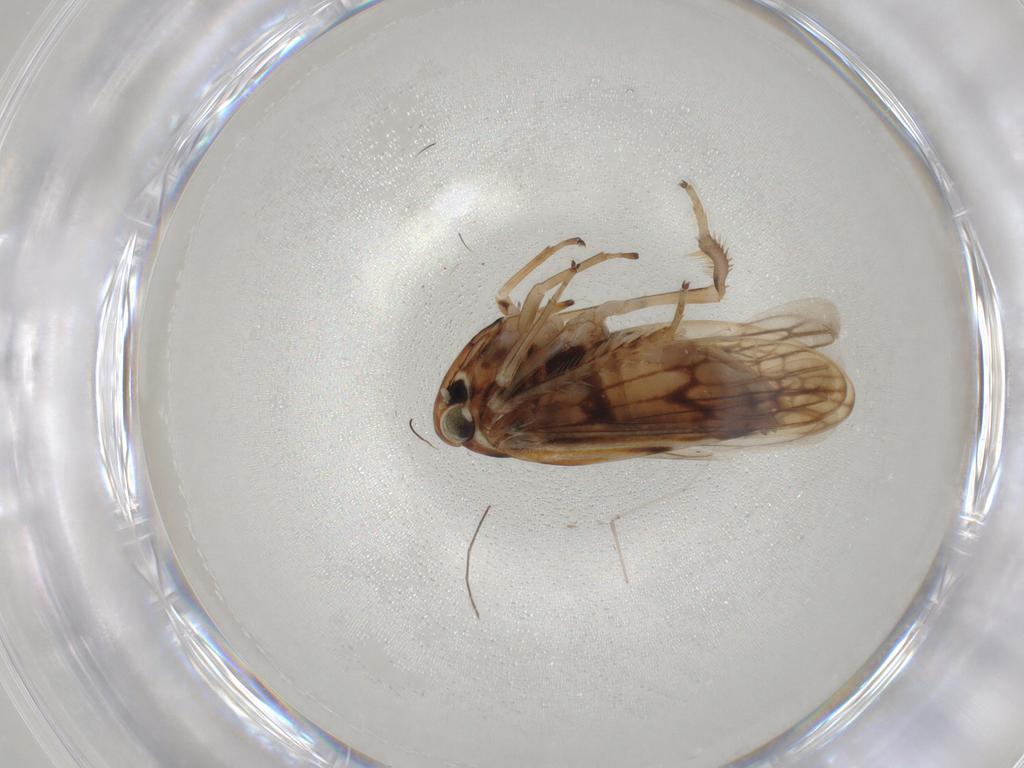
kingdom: Animalia
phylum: Arthropoda
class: Insecta
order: Hemiptera
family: Cicadellidae
